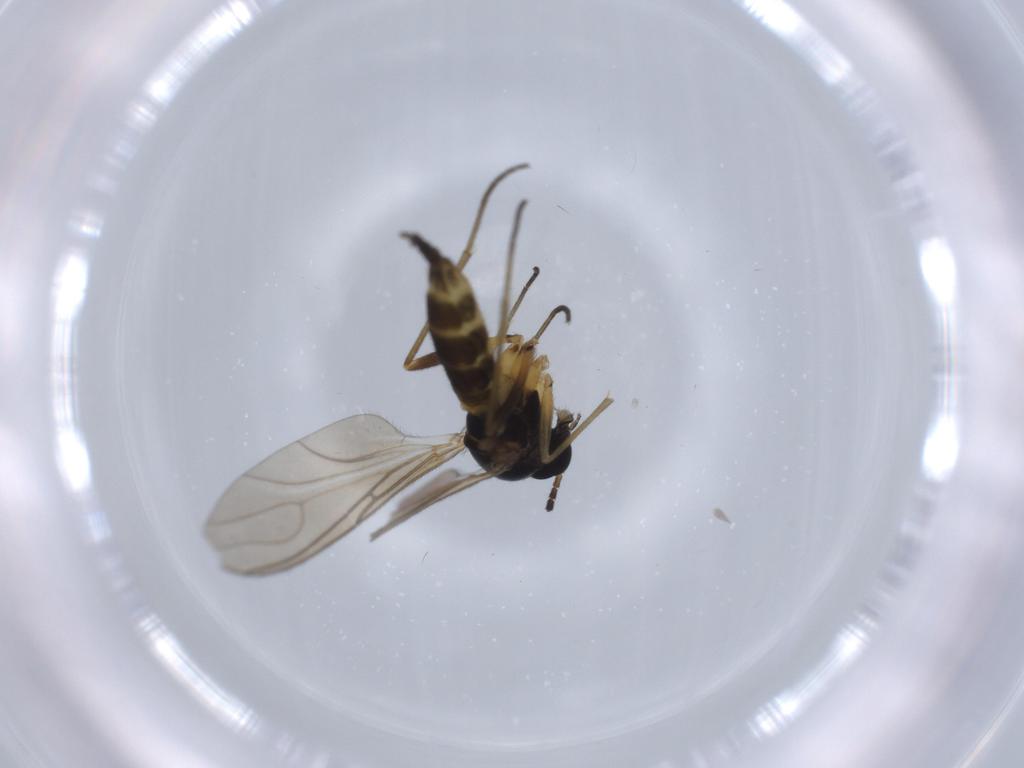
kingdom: Animalia
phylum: Arthropoda
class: Insecta
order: Diptera
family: Sciaridae
